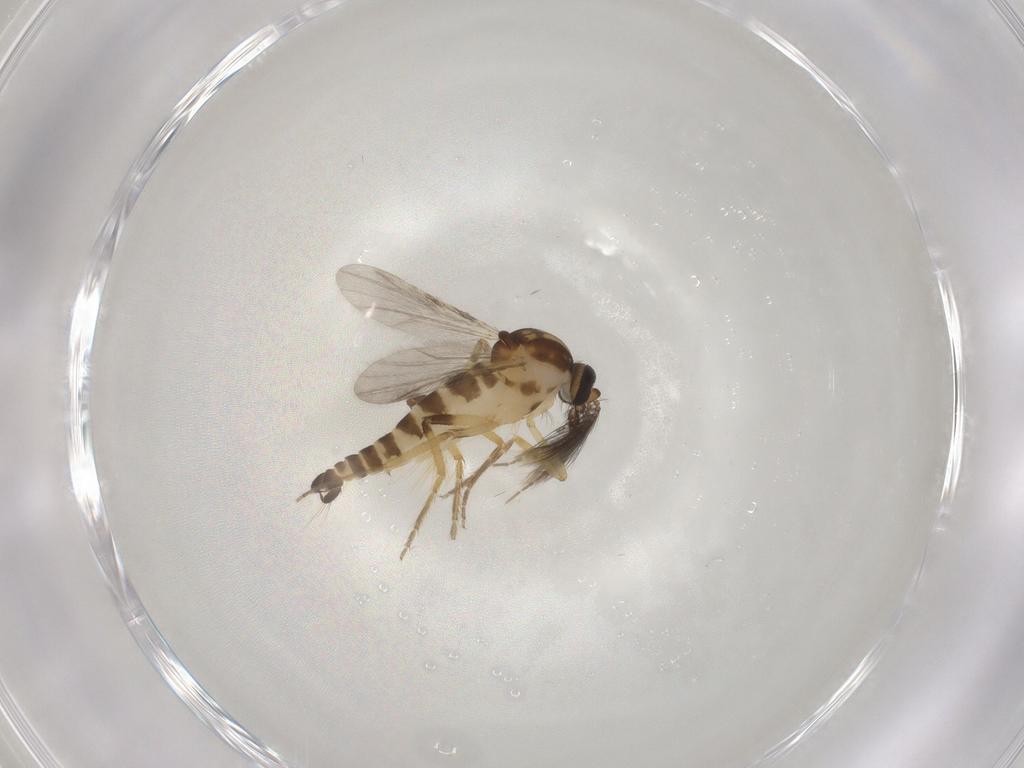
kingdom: Animalia
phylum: Arthropoda
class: Insecta
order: Diptera
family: Ceratopogonidae
